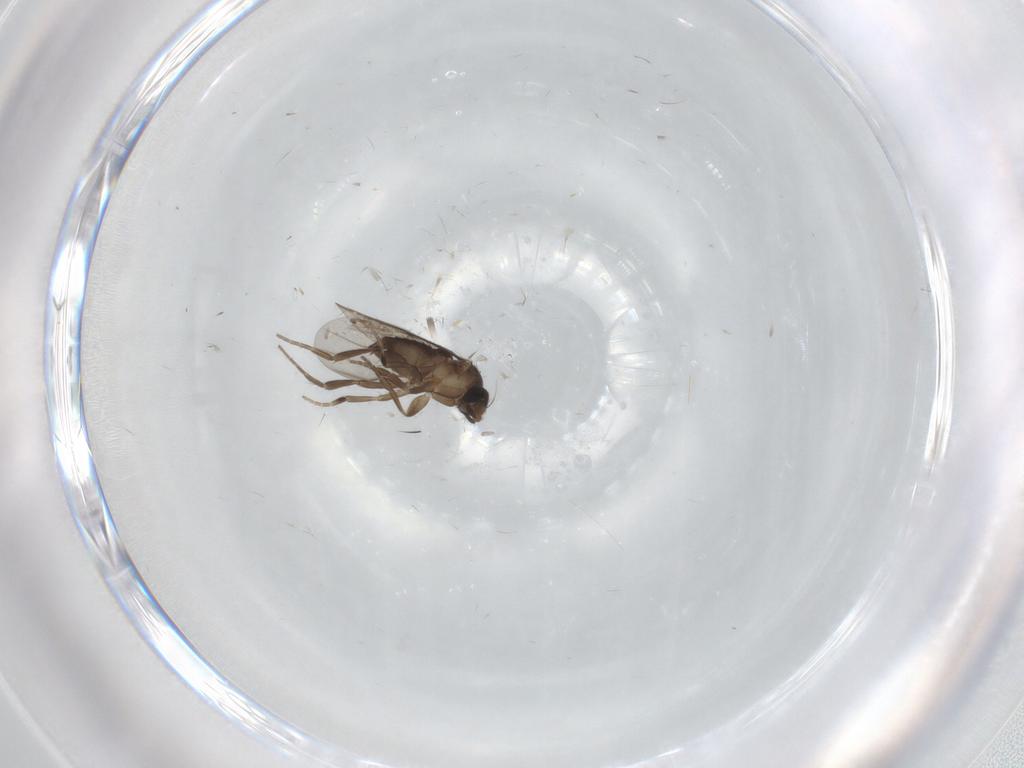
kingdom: Animalia
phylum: Arthropoda
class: Insecta
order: Diptera
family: Phoridae
